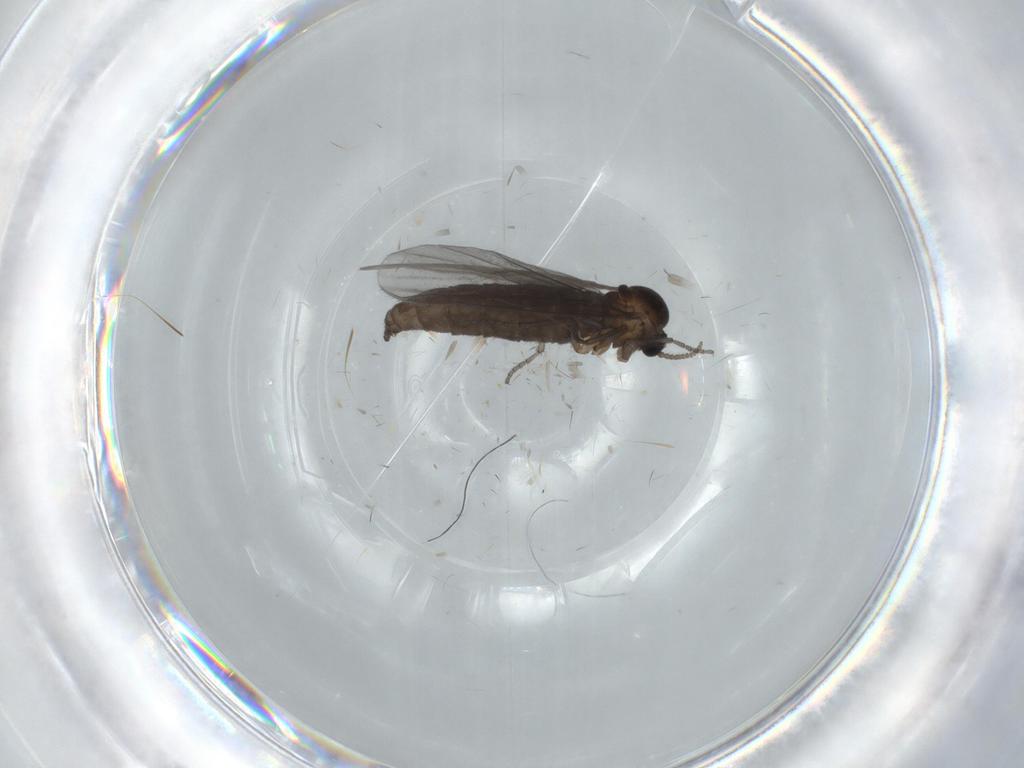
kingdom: Animalia
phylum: Arthropoda
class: Insecta
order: Diptera
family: Sciaridae
